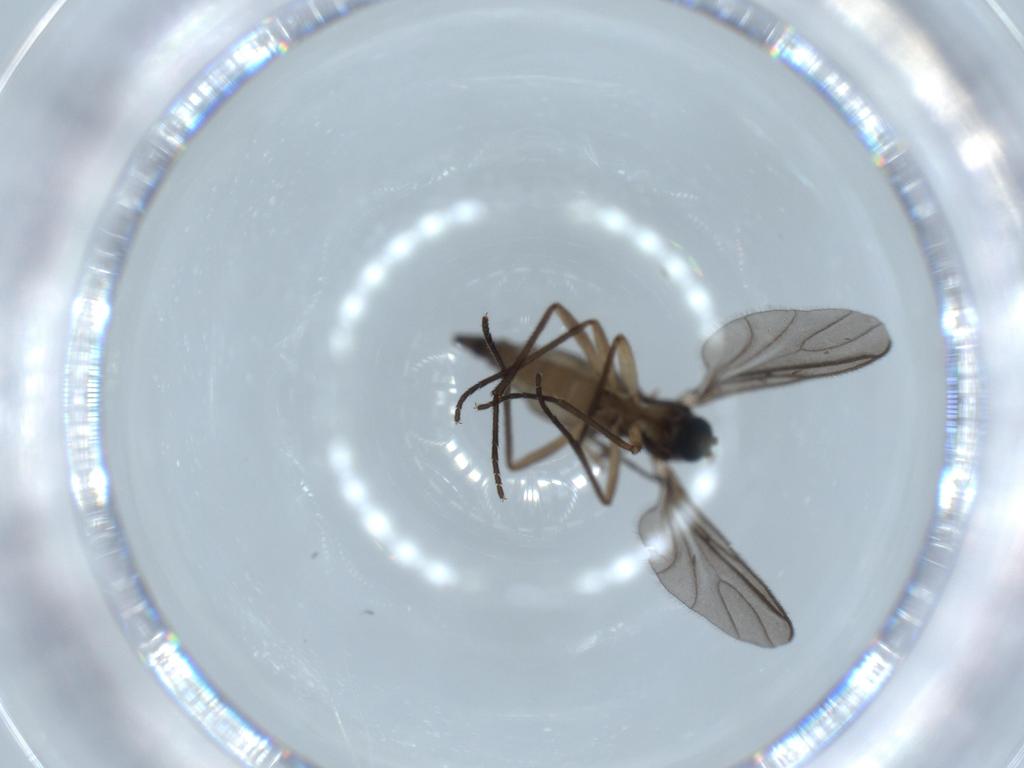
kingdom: Animalia
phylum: Arthropoda
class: Insecta
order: Diptera
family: Sciaridae
